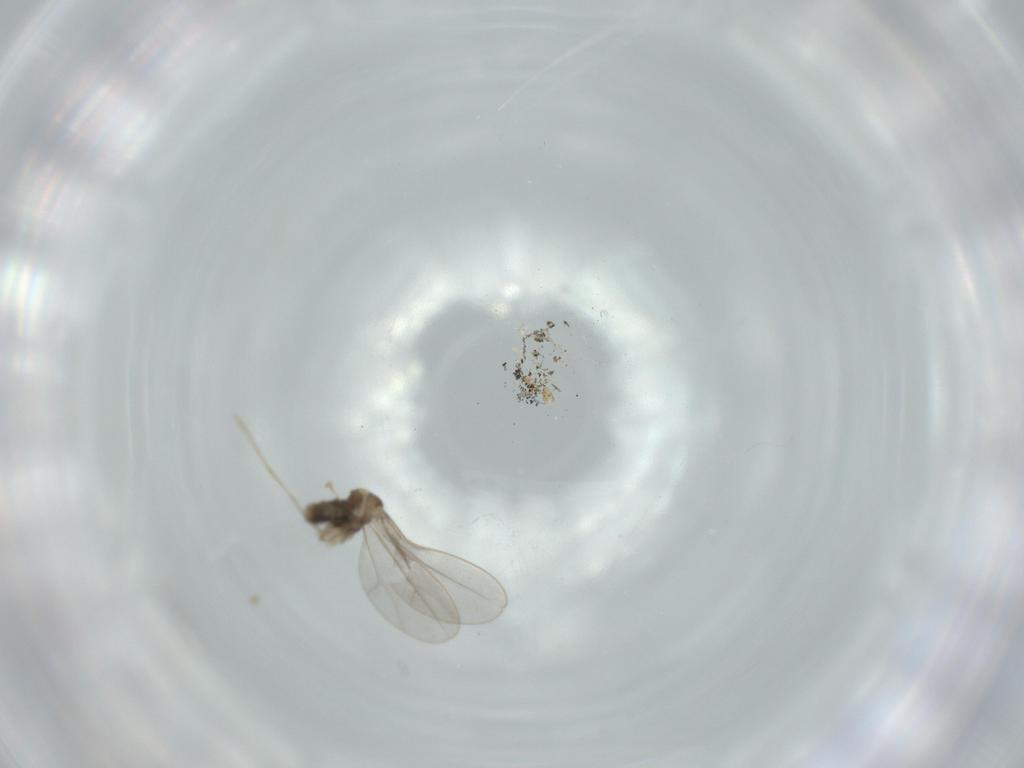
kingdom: Animalia
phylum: Arthropoda
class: Insecta
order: Diptera
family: Cecidomyiidae
